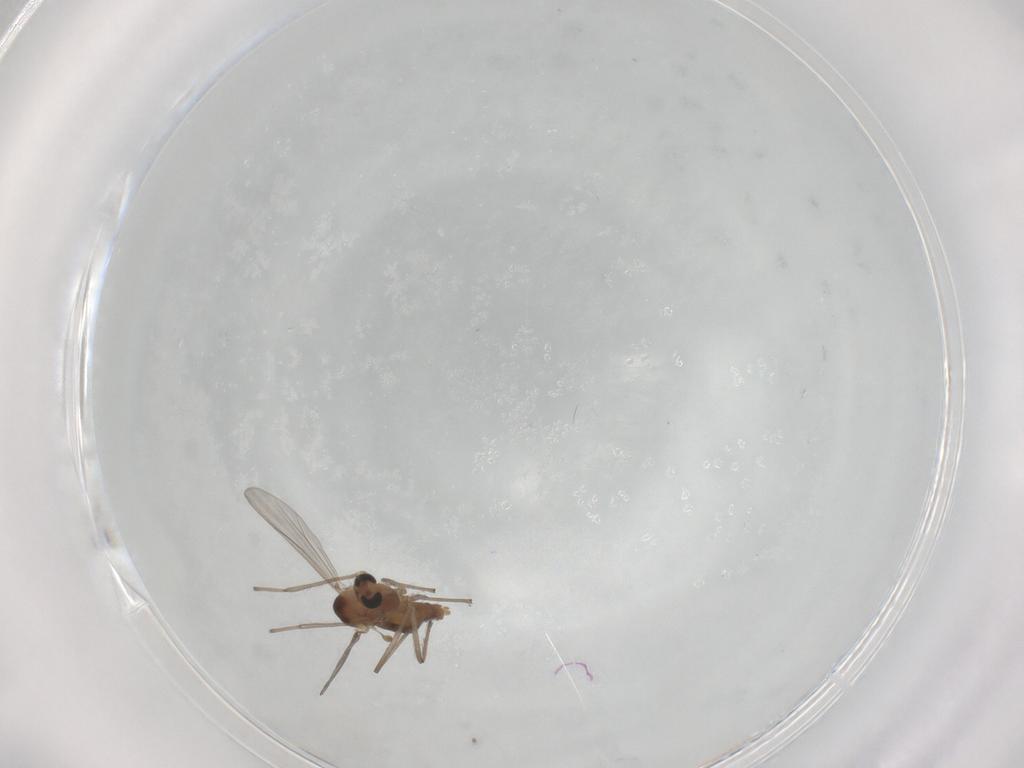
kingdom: Animalia
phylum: Arthropoda
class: Insecta
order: Diptera
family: Chironomidae
